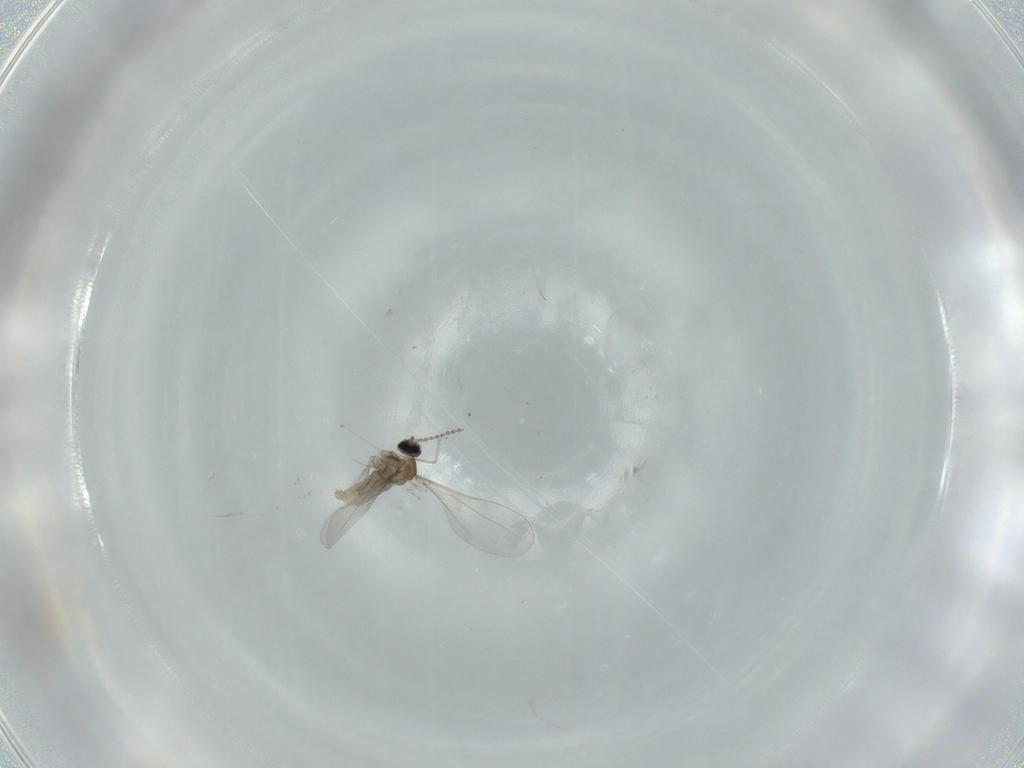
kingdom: Animalia
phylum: Arthropoda
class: Insecta
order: Diptera
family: Cecidomyiidae
